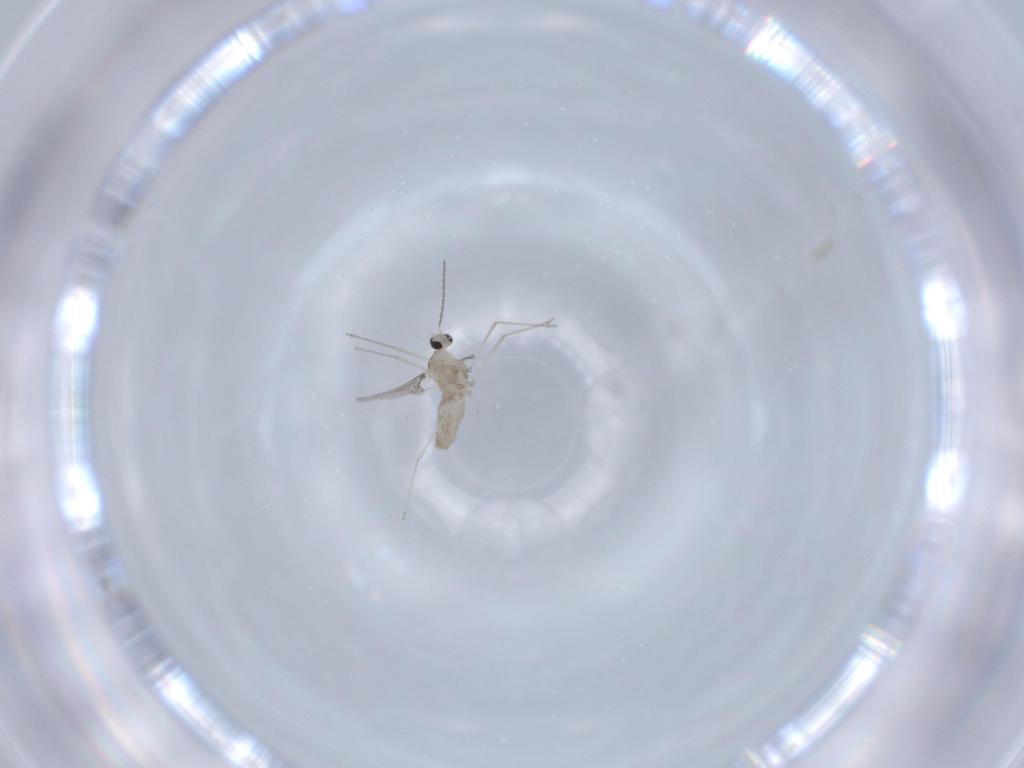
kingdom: Animalia
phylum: Arthropoda
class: Insecta
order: Diptera
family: Cecidomyiidae
